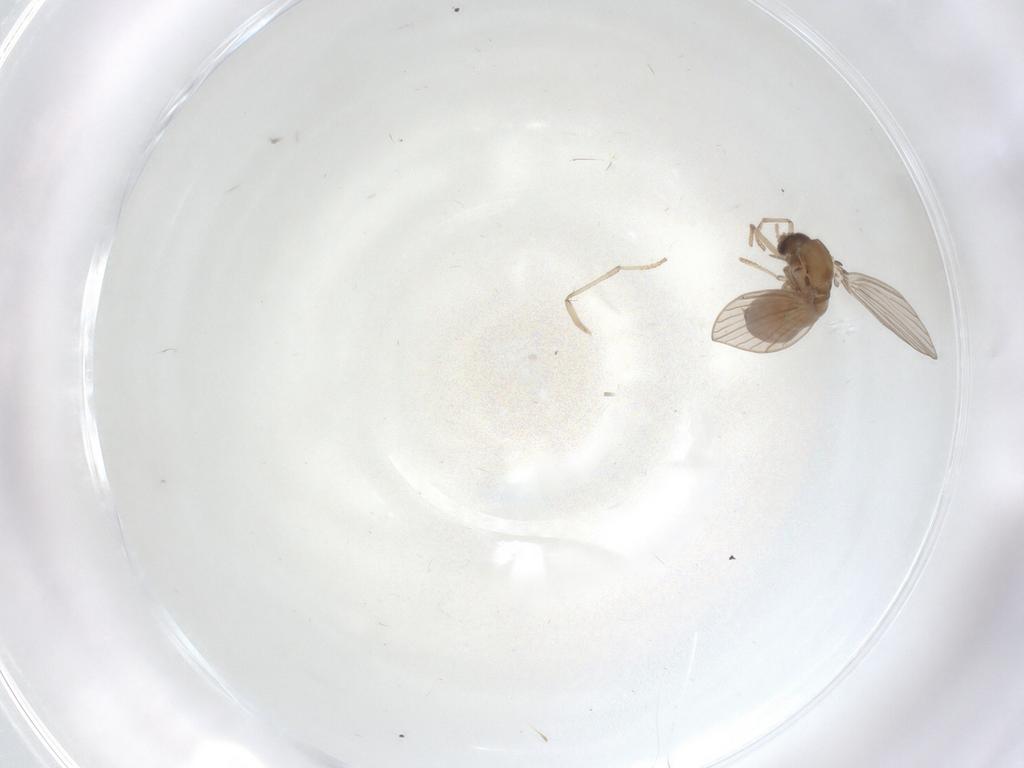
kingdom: Animalia
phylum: Arthropoda
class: Insecta
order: Diptera
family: Psychodidae
